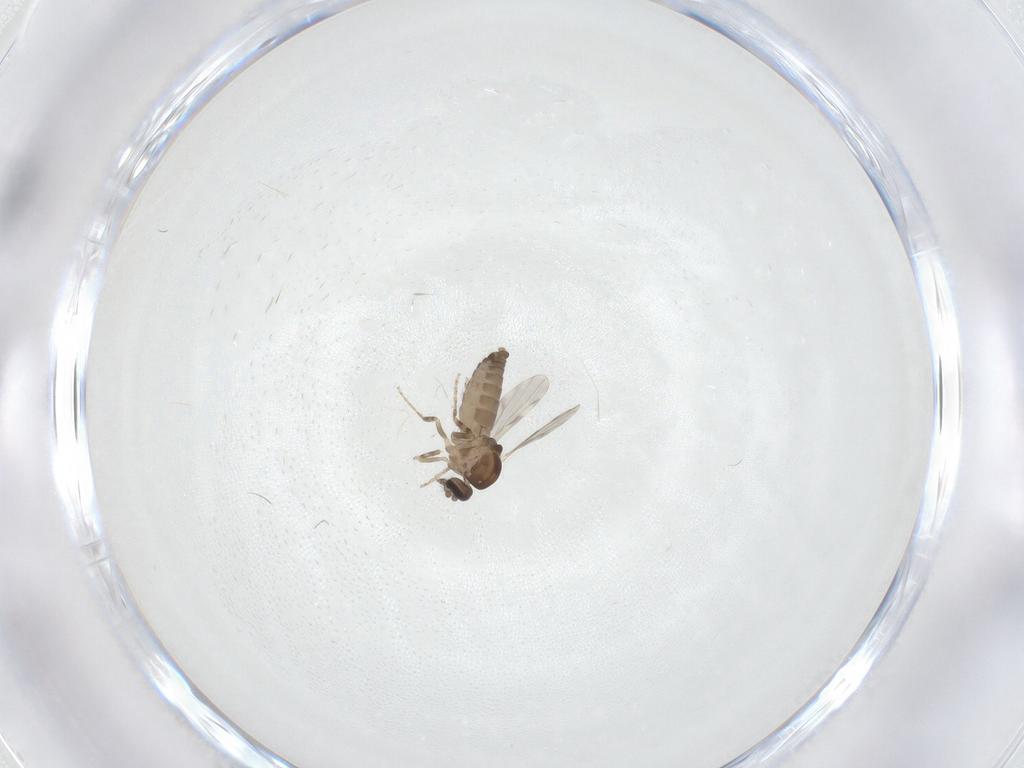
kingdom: Animalia
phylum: Arthropoda
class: Insecta
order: Diptera
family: Ceratopogonidae
